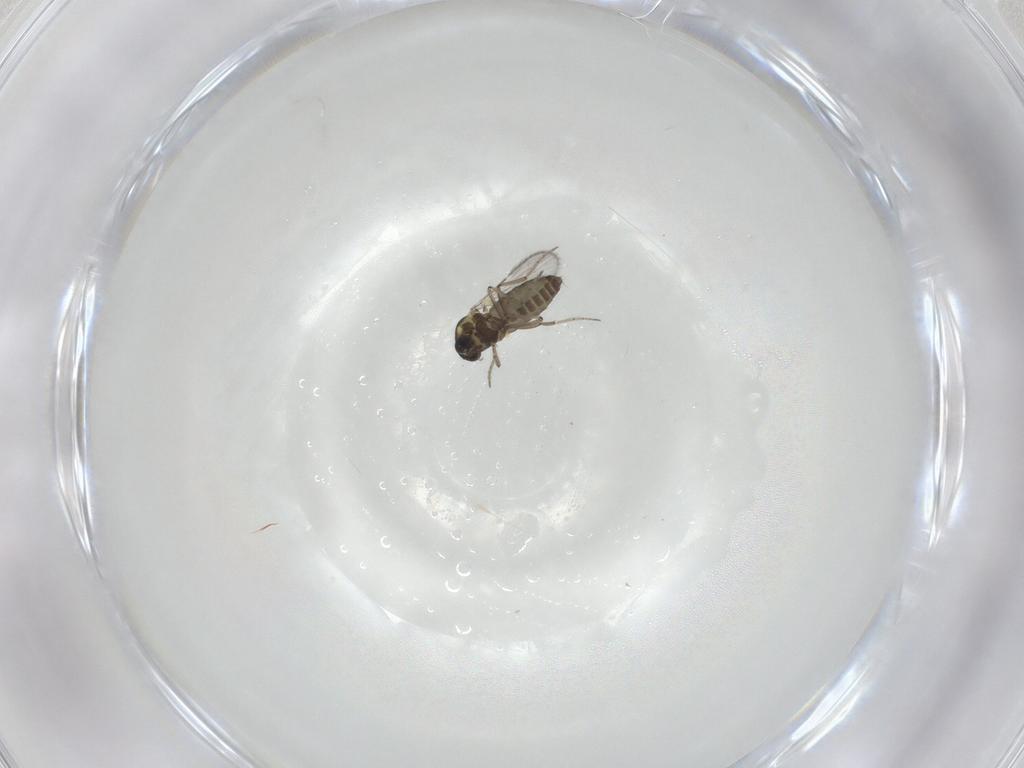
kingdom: Animalia
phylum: Arthropoda
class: Insecta
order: Diptera
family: Ceratopogonidae
